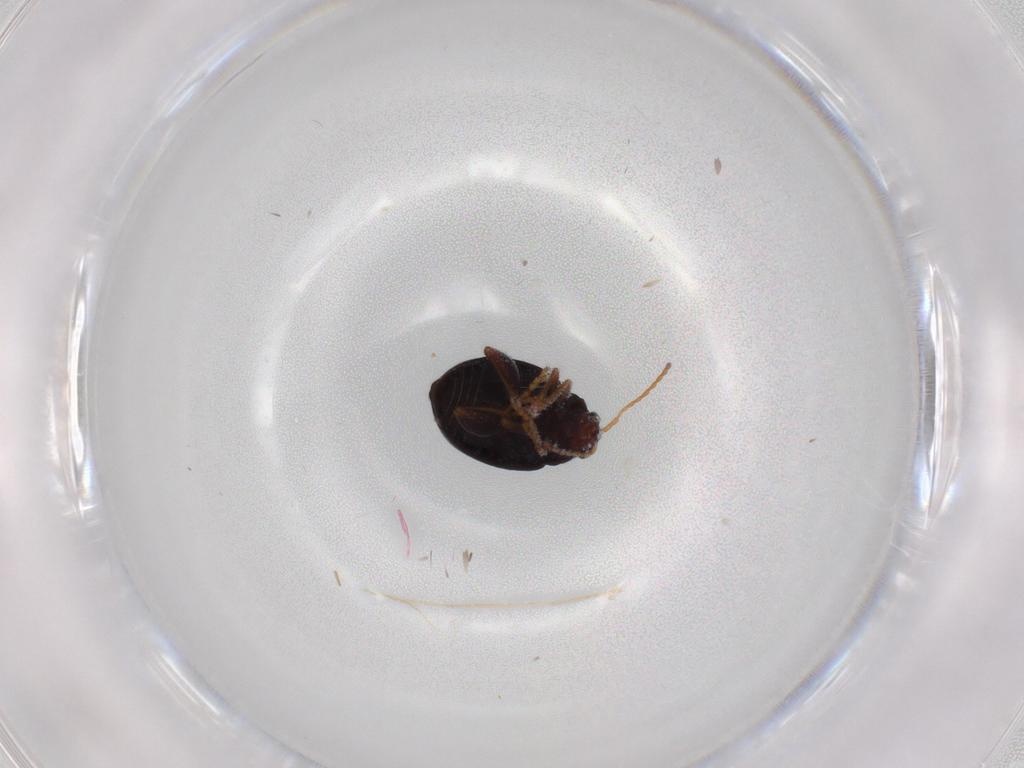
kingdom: Animalia
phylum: Arthropoda
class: Insecta
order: Coleoptera
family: Chrysomelidae
